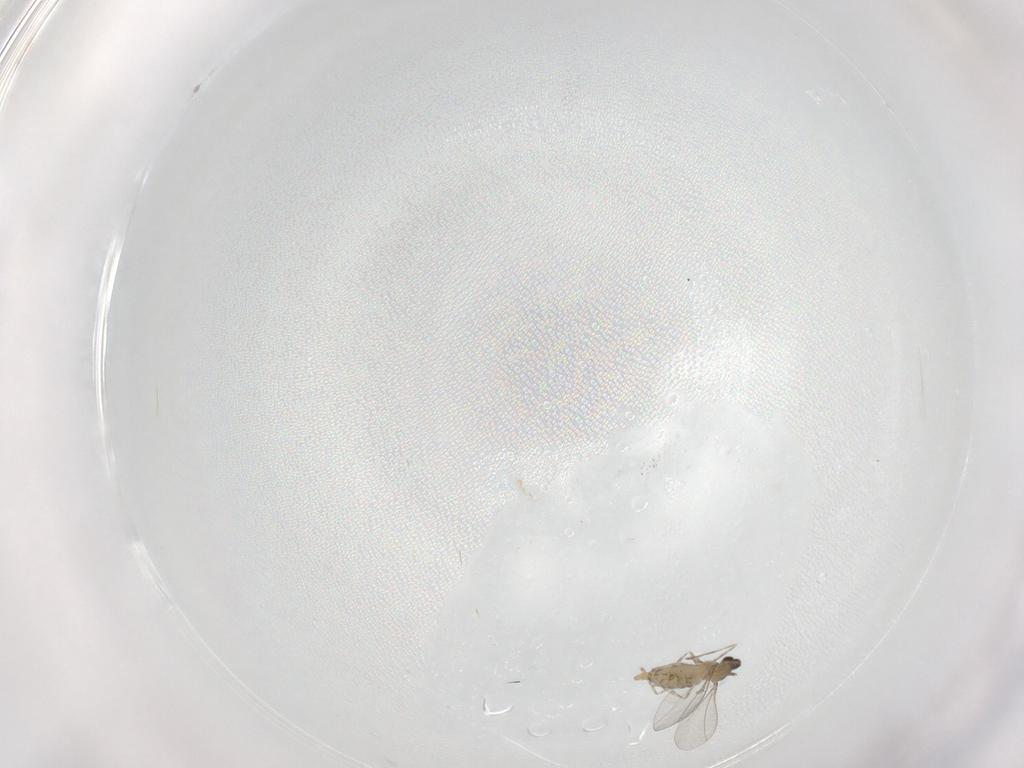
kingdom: Animalia
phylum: Arthropoda
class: Insecta
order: Diptera
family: Cecidomyiidae
